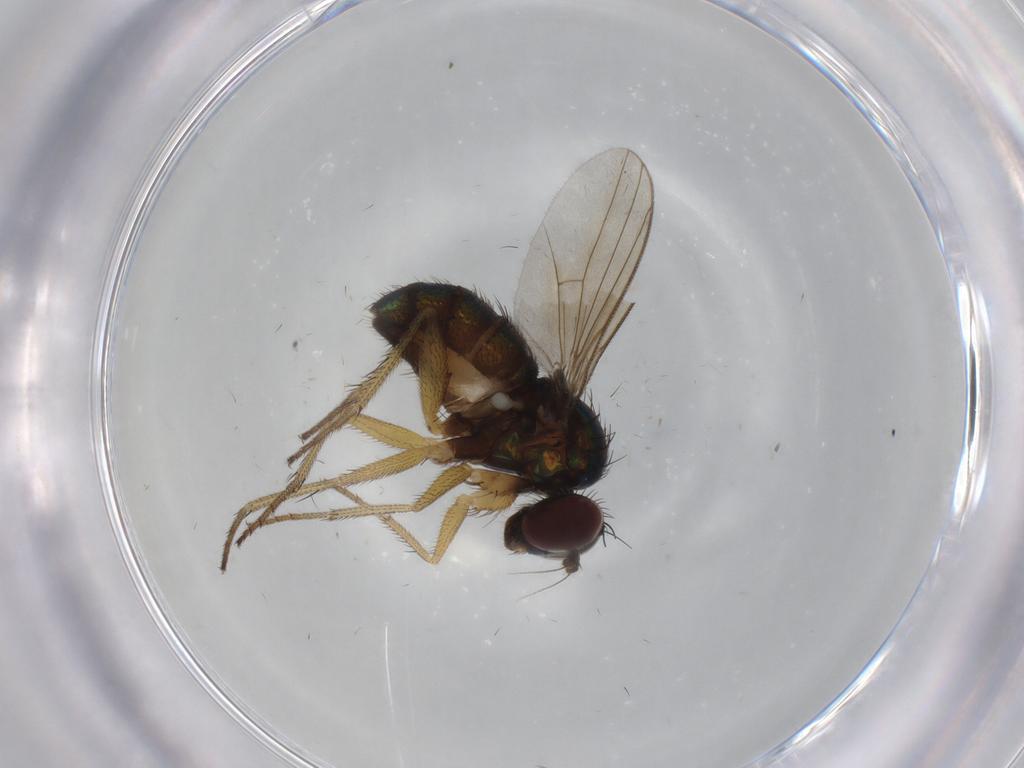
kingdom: Animalia
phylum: Arthropoda
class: Insecta
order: Diptera
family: Dolichopodidae
